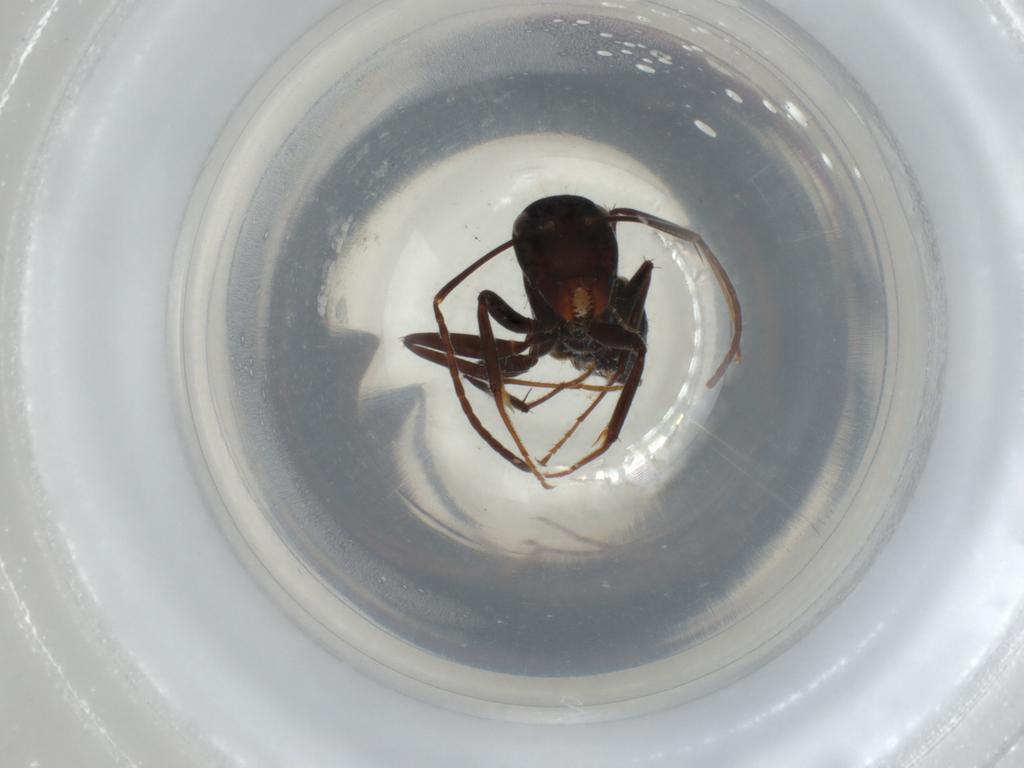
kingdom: Animalia
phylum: Arthropoda
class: Insecta
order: Hymenoptera
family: Formicidae
